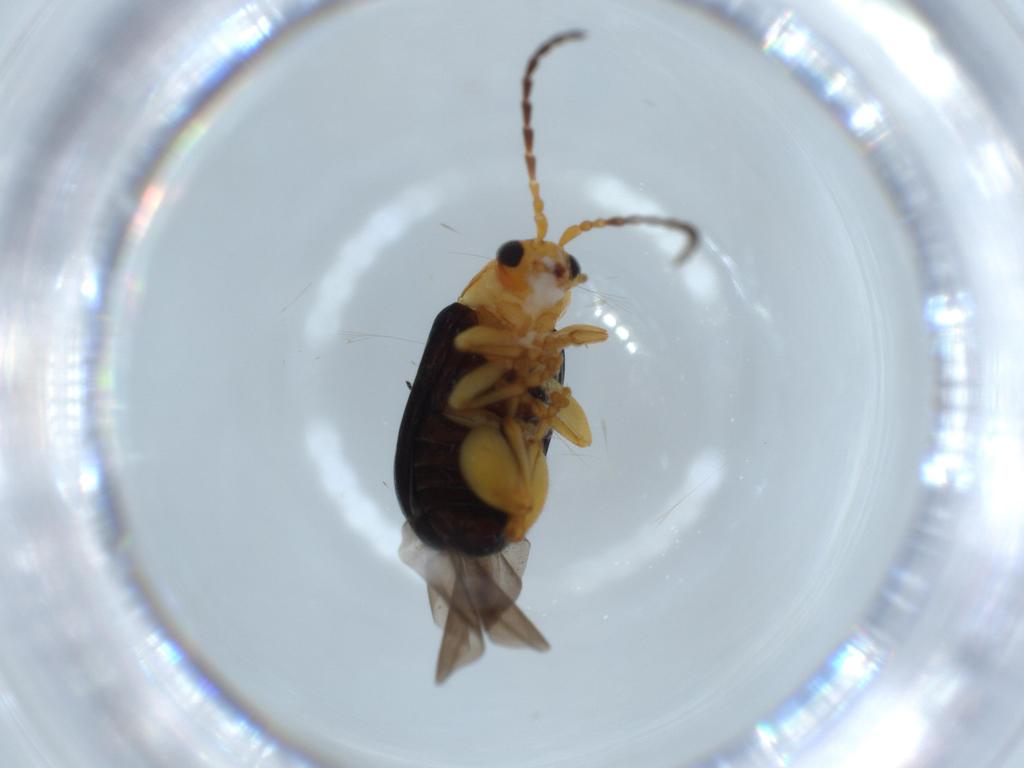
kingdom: Animalia
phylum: Arthropoda
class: Insecta
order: Coleoptera
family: Chrysomelidae
